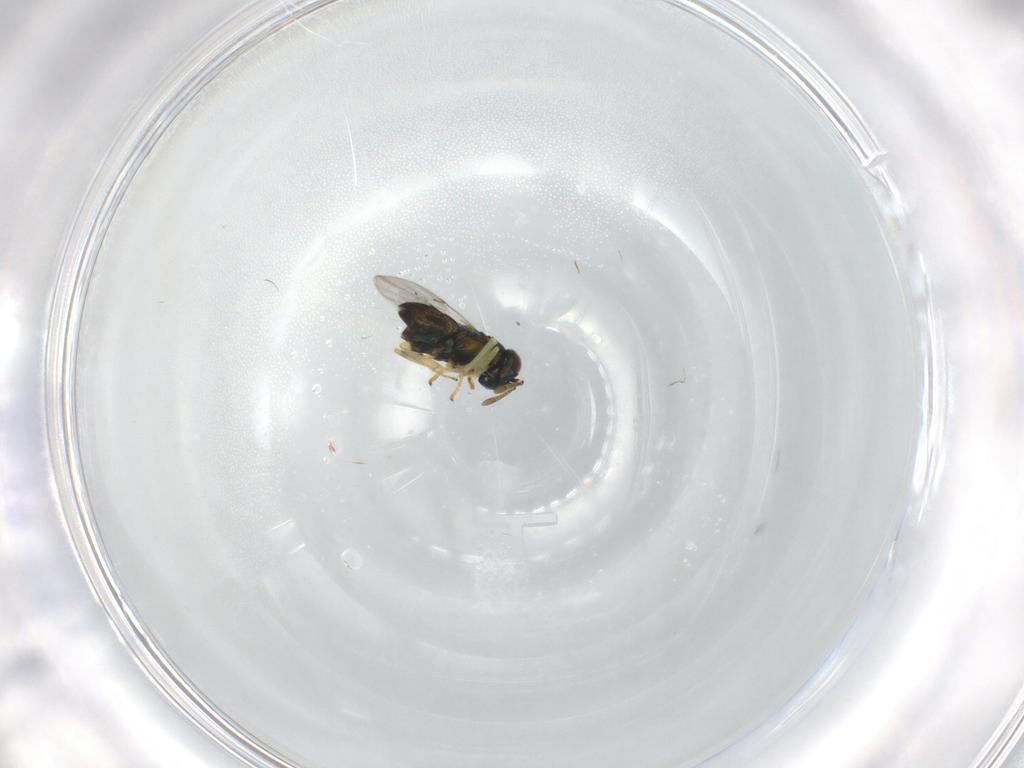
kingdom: Animalia
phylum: Arthropoda
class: Insecta
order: Hymenoptera
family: Encyrtidae
